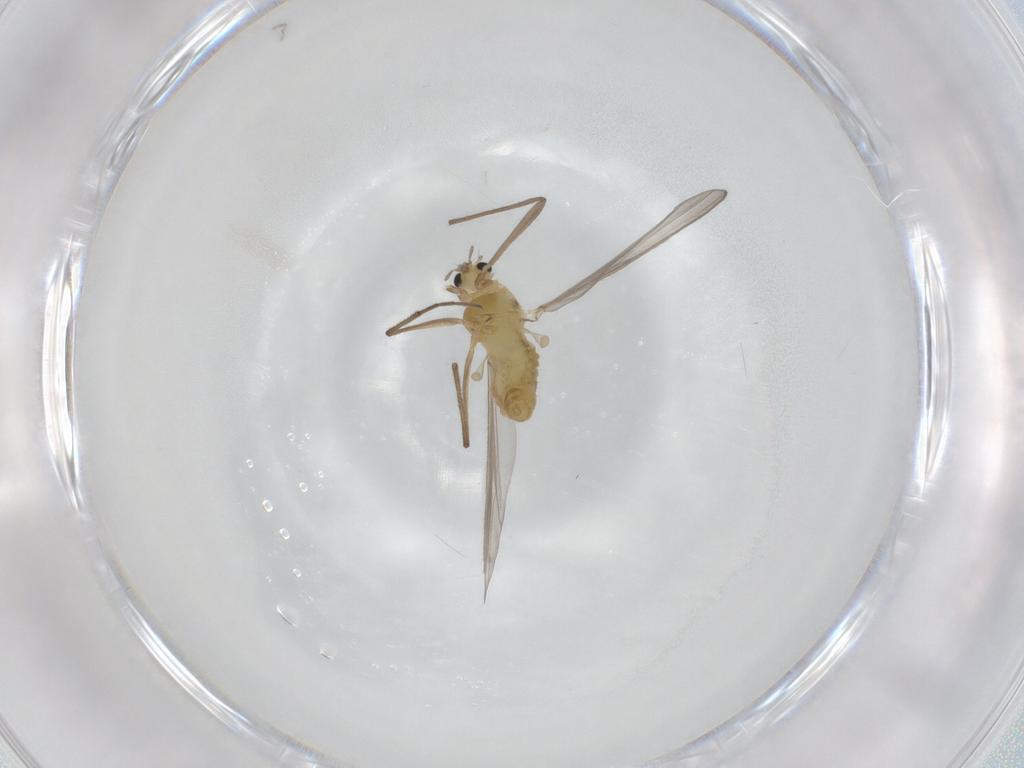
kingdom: Animalia
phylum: Arthropoda
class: Insecta
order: Diptera
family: Chironomidae
